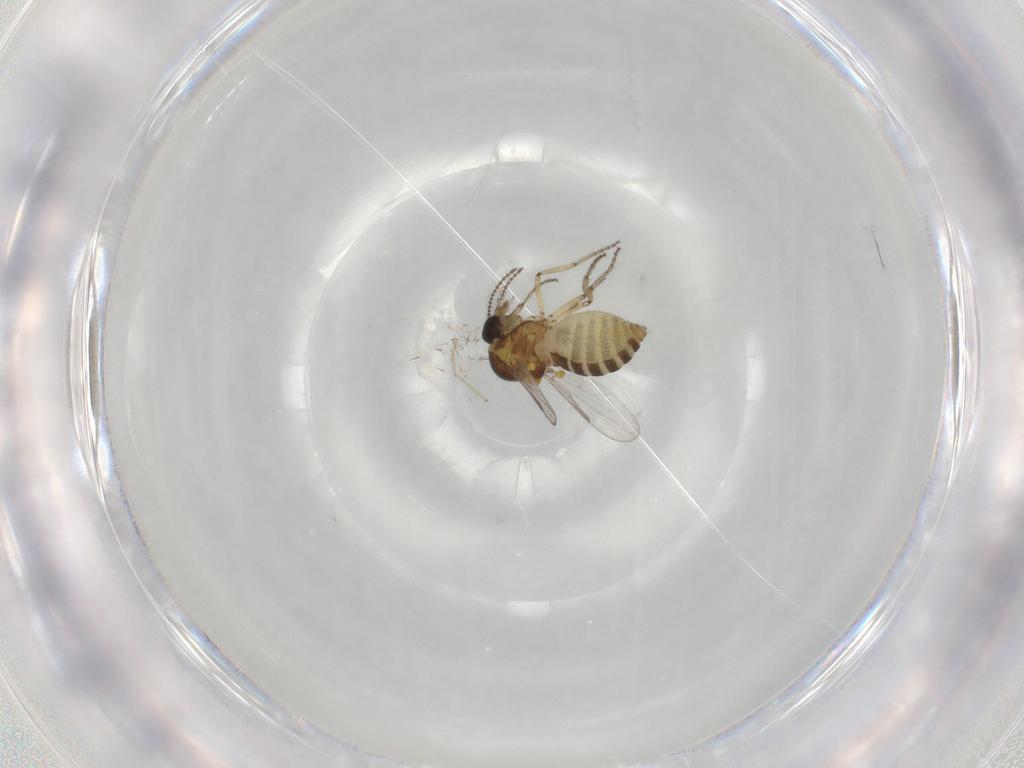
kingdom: Animalia
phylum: Arthropoda
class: Insecta
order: Diptera
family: Ceratopogonidae
